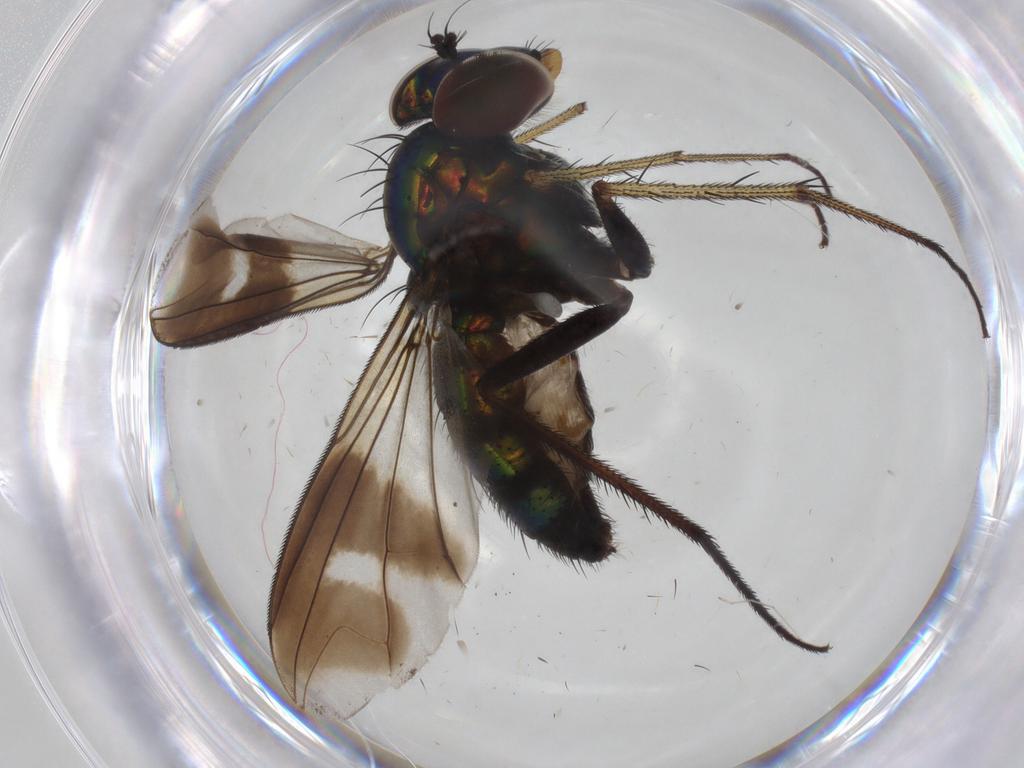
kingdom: Animalia
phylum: Arthropoda
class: Insecta
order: Diptera
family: Dolichopodidae
